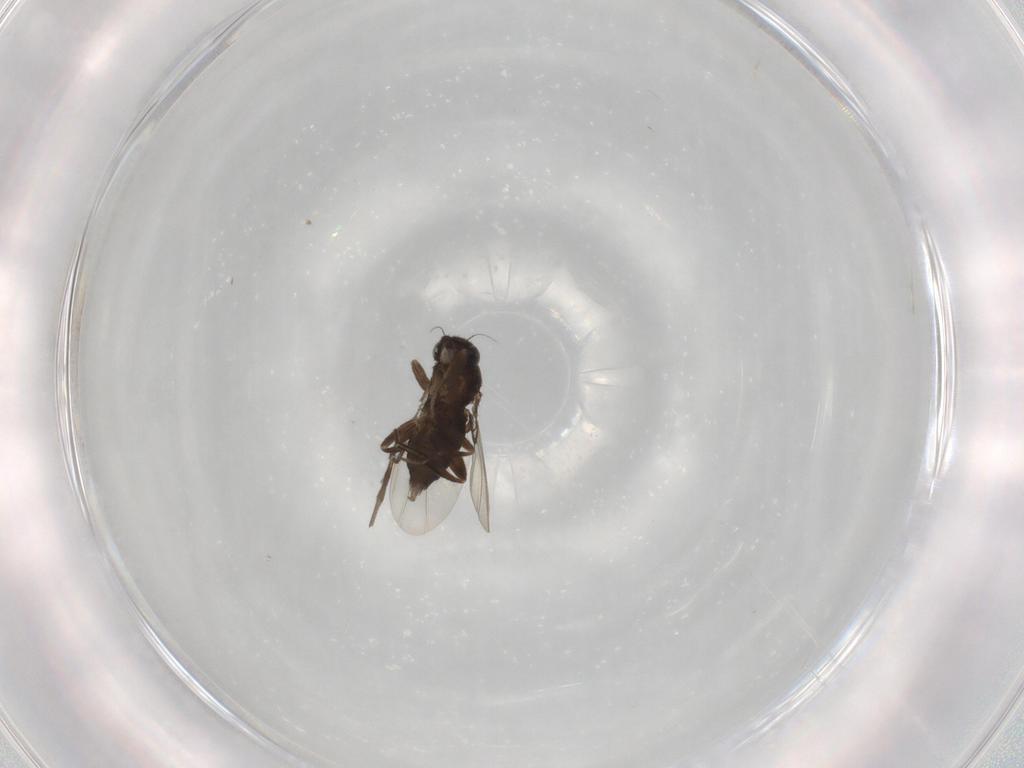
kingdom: Animalia
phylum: Arthropoda
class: Insecta
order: Diptera
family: Phoridae
